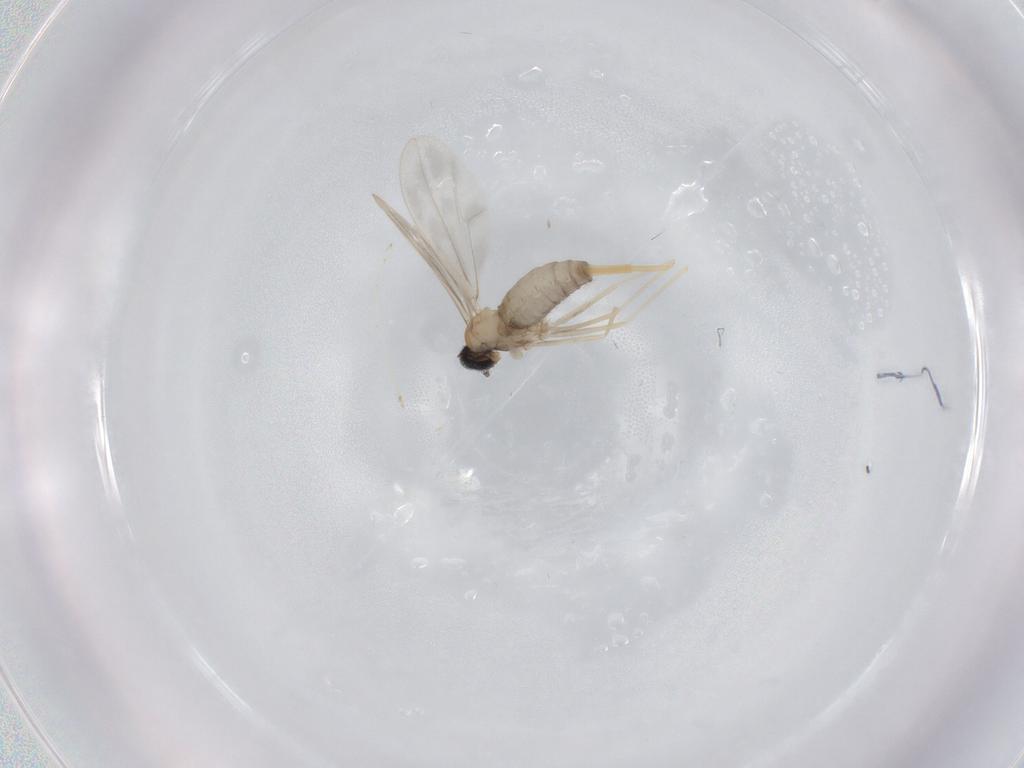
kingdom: Animalia
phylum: Arthropoda
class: Insecta
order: Diptera
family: Cecidomyiidae
